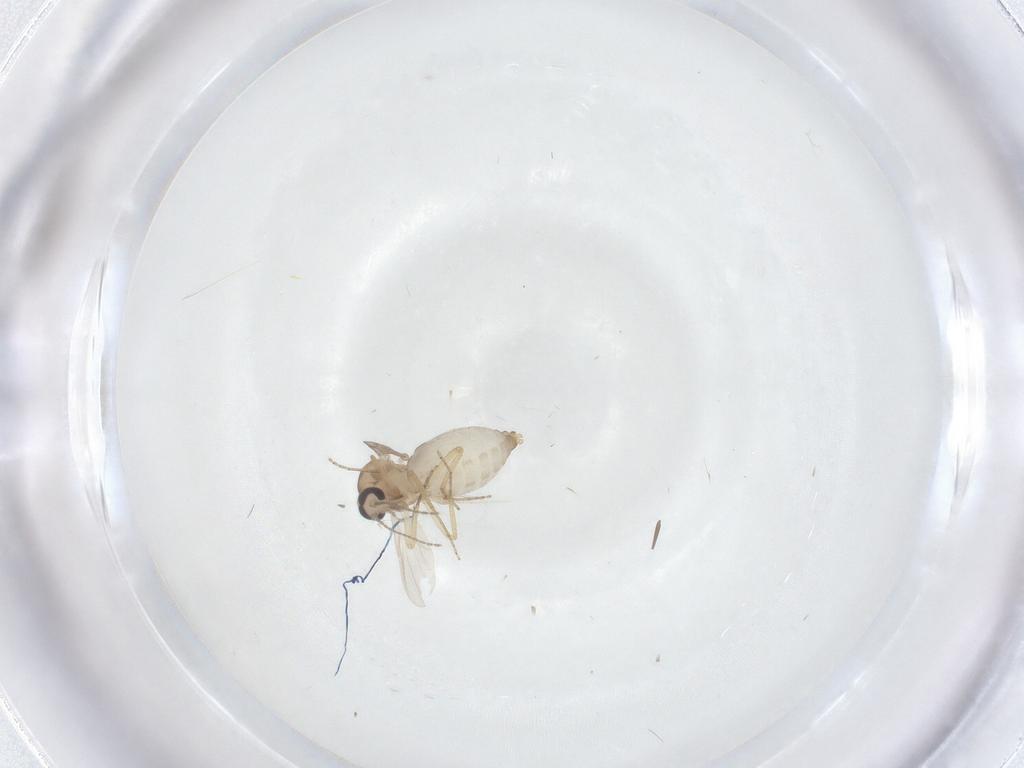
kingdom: Animalia
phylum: Arthropoda
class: Insecta
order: Diptera
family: Ceratopogonidae
